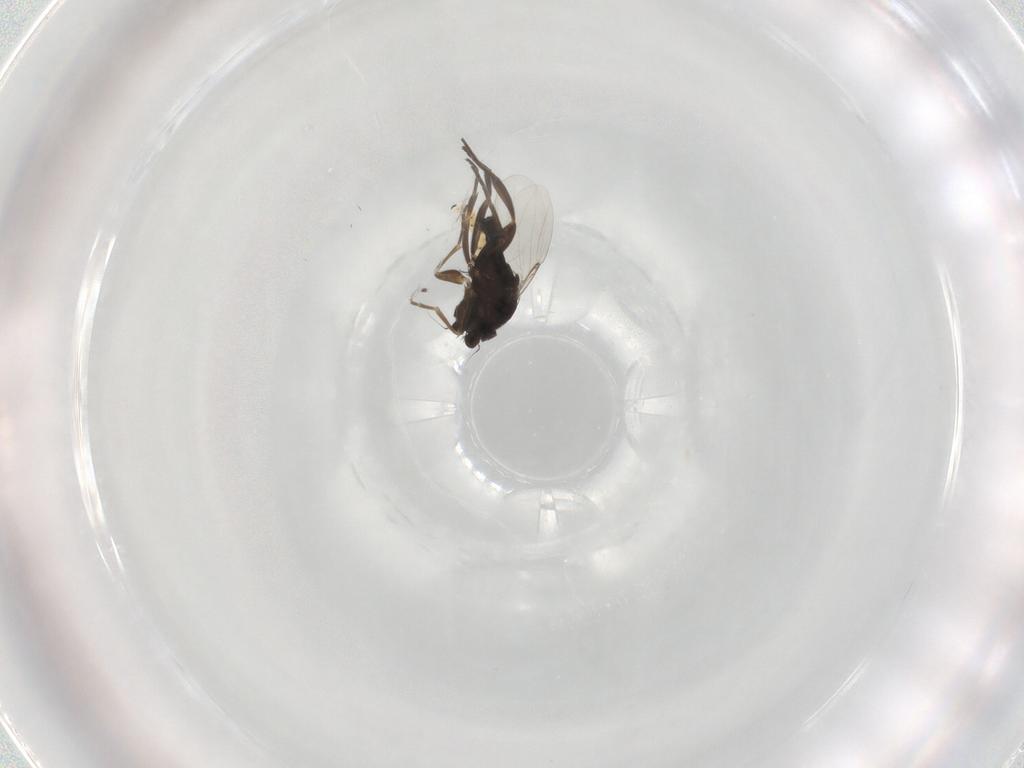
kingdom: Animalia
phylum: Arthropoda
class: Insecta
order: Diptera
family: Phoridae
